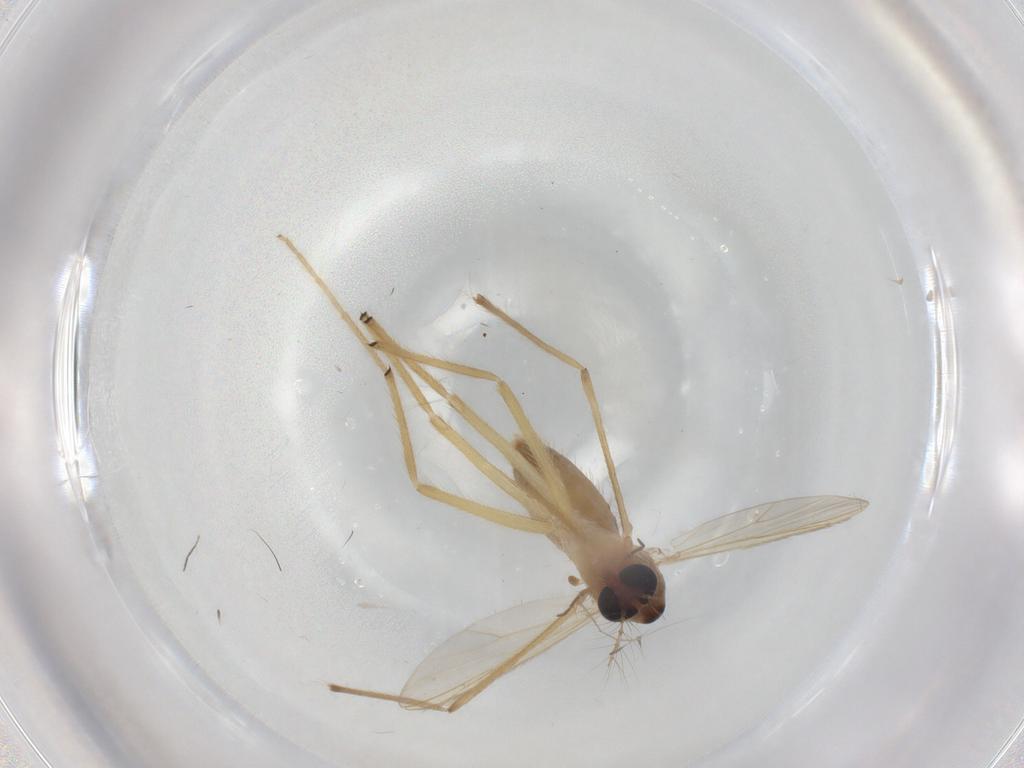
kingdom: Animalia
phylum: Arthropoda
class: Insecta
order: Diptera
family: Chironomidae
